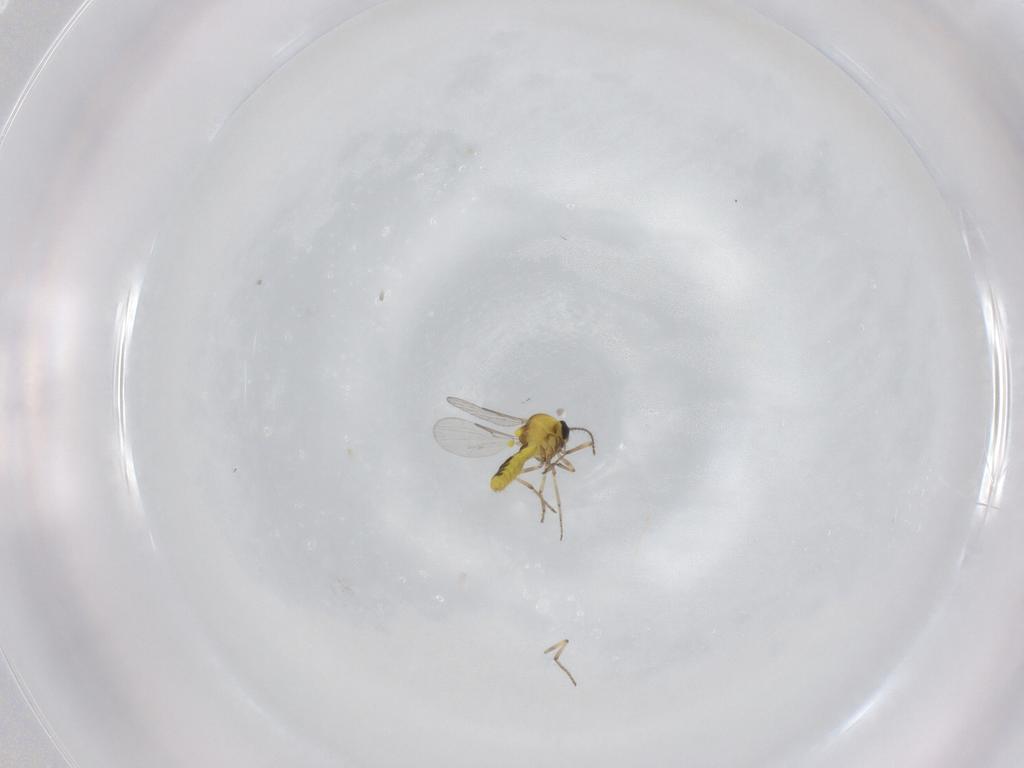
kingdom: Animalia
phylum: Arthropoda
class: Insecta
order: Diptera
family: Ceratopogonidae
